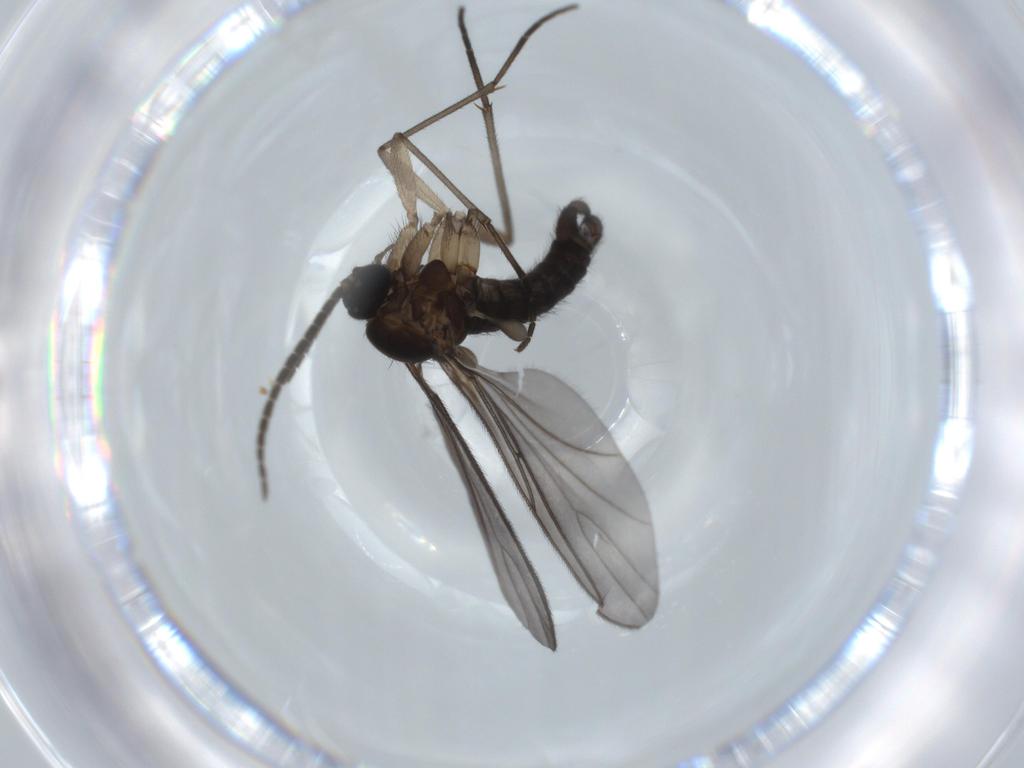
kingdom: Animalia
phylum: Arthropoda
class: Insecta
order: Diptera
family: Sciaridae
